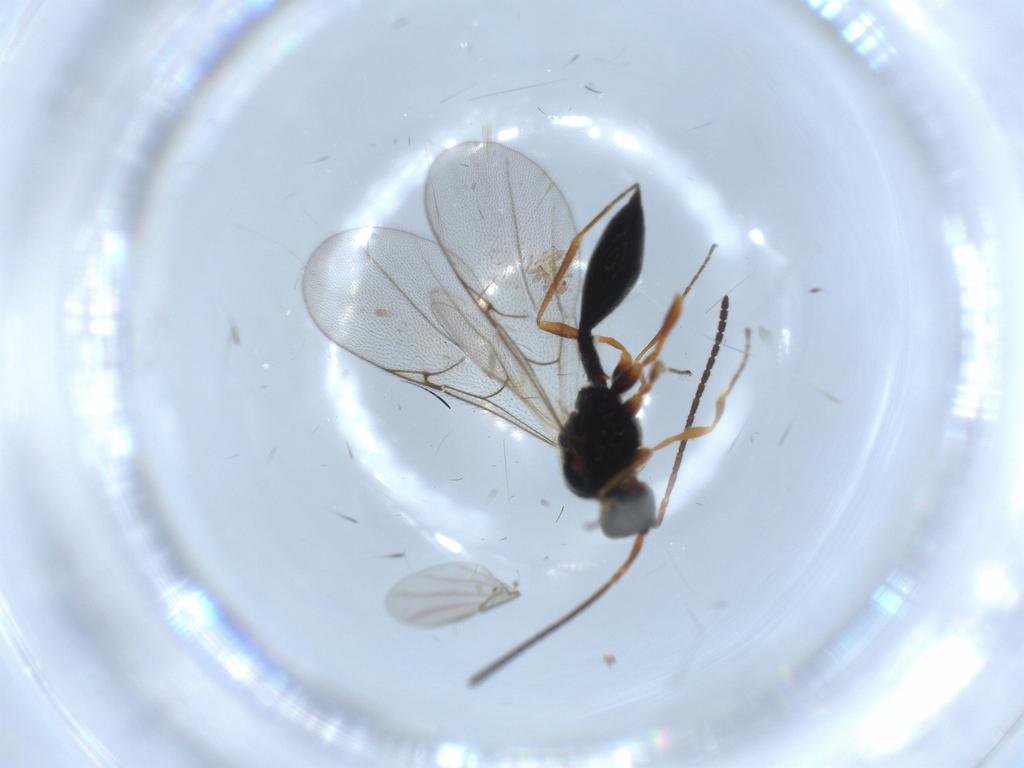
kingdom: Animalia
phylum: Arthropoda
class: Insecta
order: Hymenoptera
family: Diapriidae
